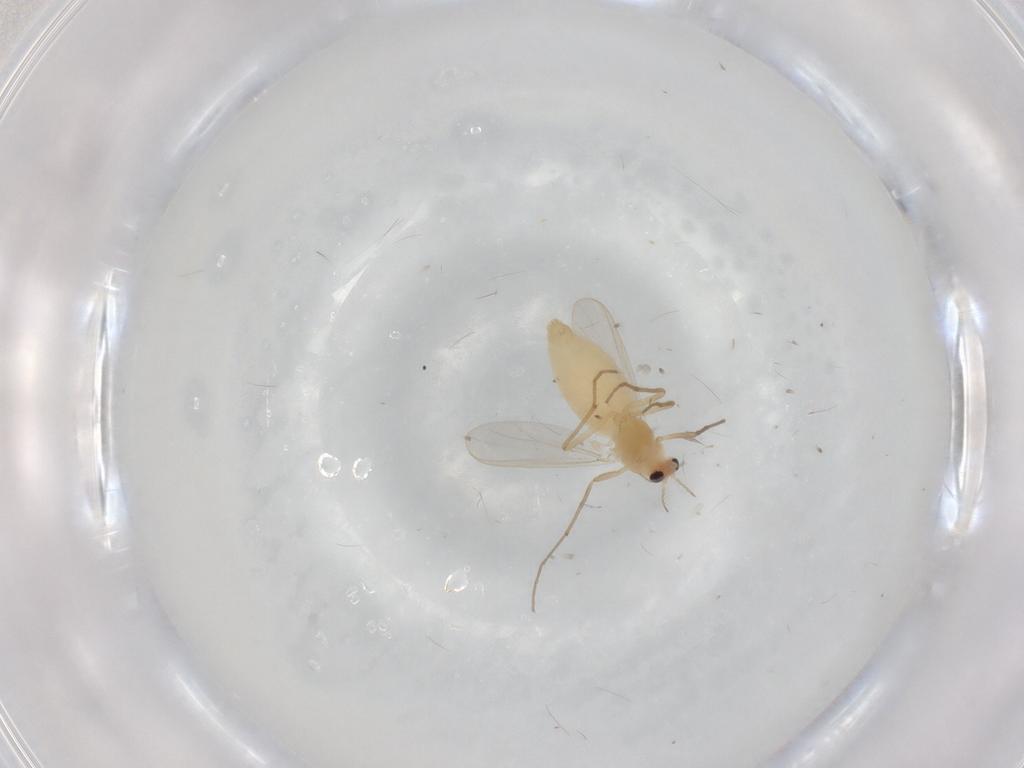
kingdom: Animalia
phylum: Arthropoda
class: Insecta
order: Diptera
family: Chironomidae
